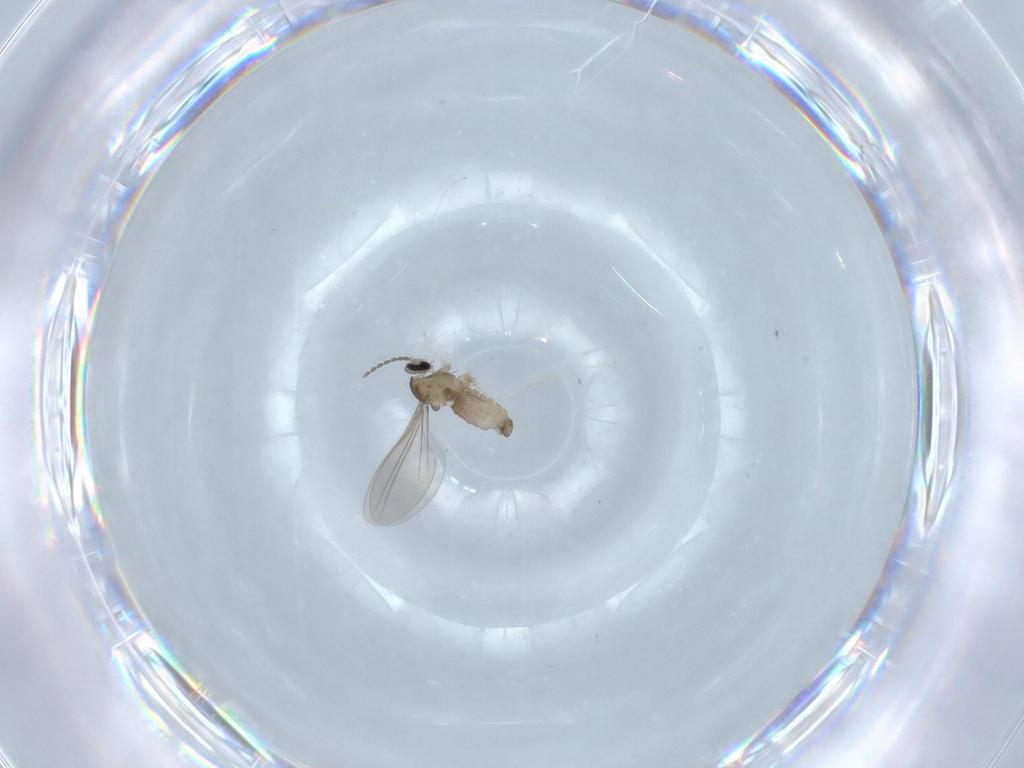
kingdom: Animalia
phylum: Arthropoda
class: Insecta
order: Diptera
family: Cecidomyiidae
